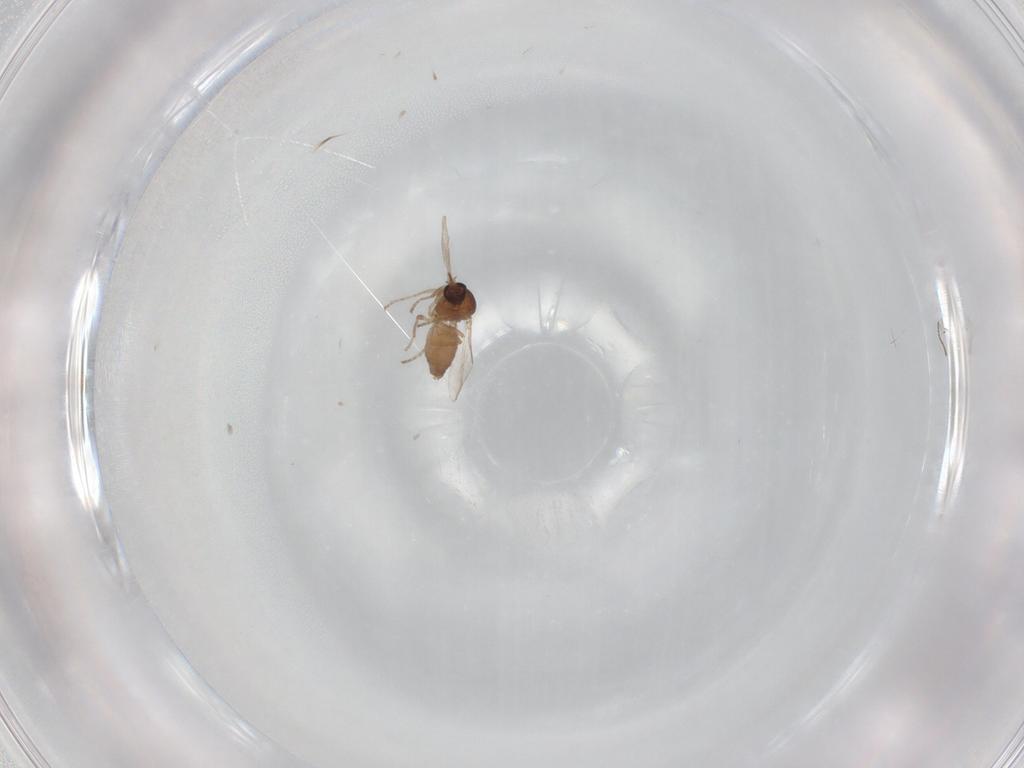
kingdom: Animalia
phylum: Arthropoda
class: Insecta
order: Diptera
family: Ceratopogonidae
